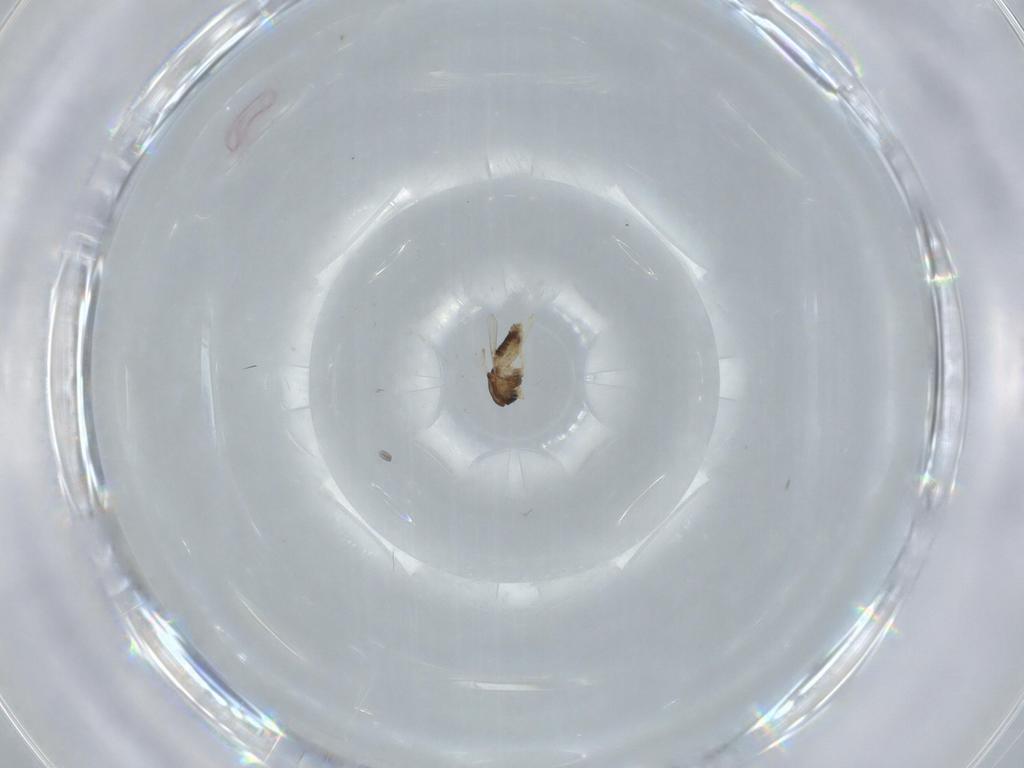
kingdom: Animalia
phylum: Arthropoda
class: Insecta
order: Diptera
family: Chironomidae
